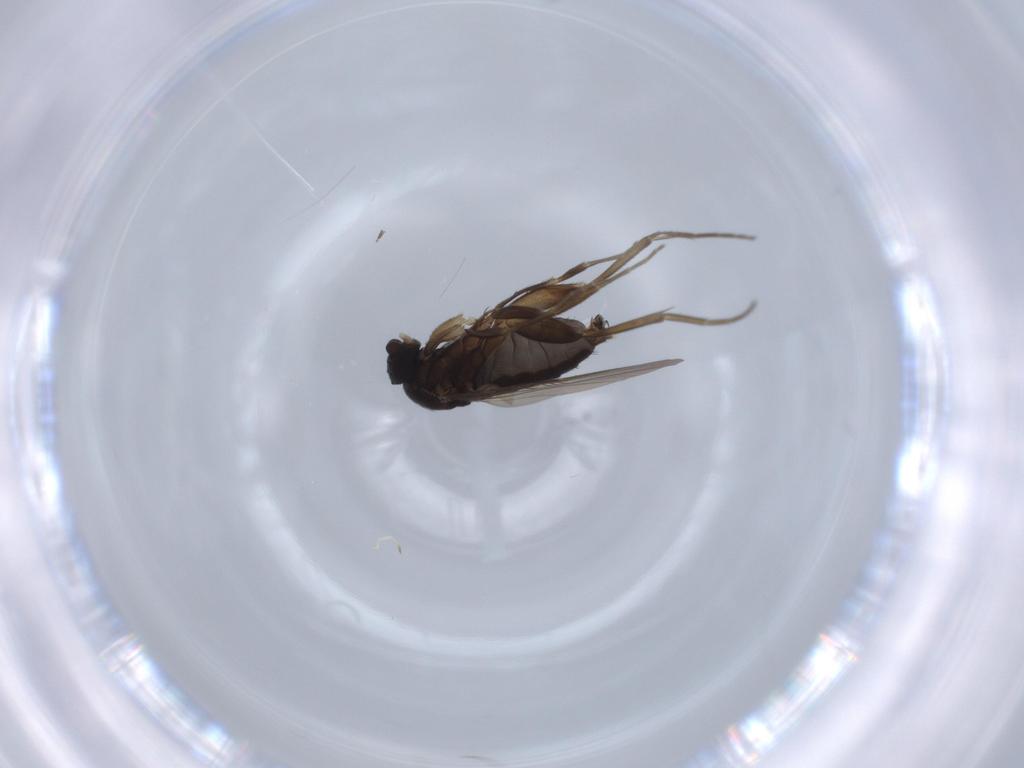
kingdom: Animalia
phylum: Arthropoda
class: Insecta
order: Diptera
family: Phoridae
